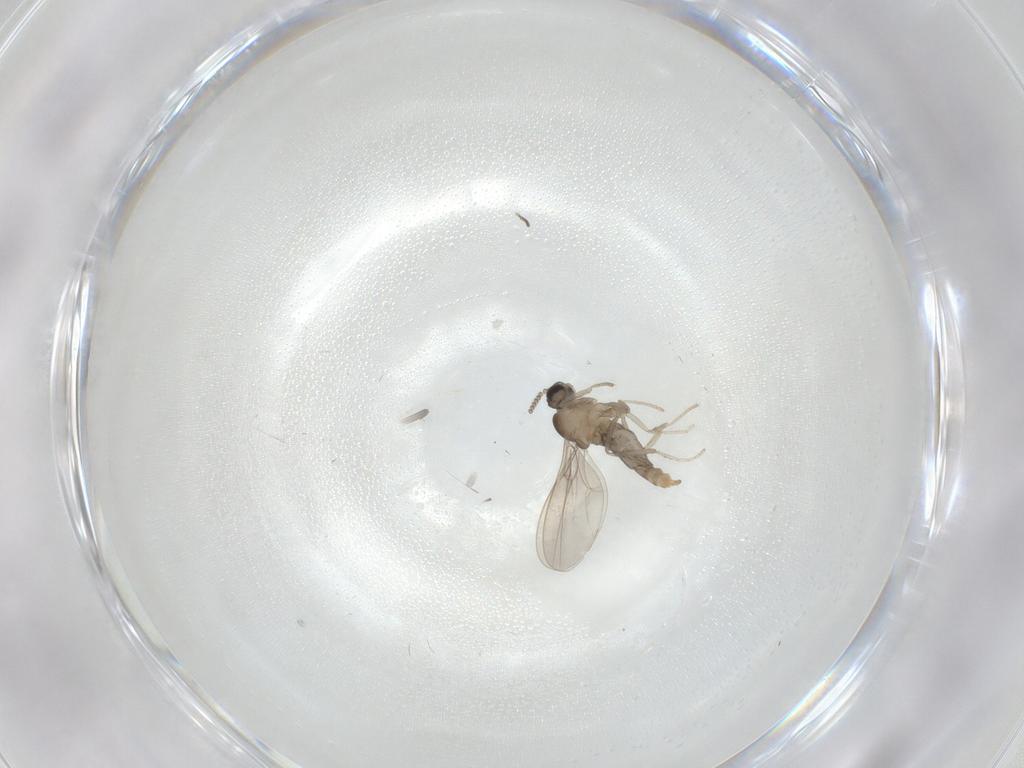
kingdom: Animalia
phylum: Arthropoda
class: Insecta
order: Diptera
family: Cecidomyiidae
